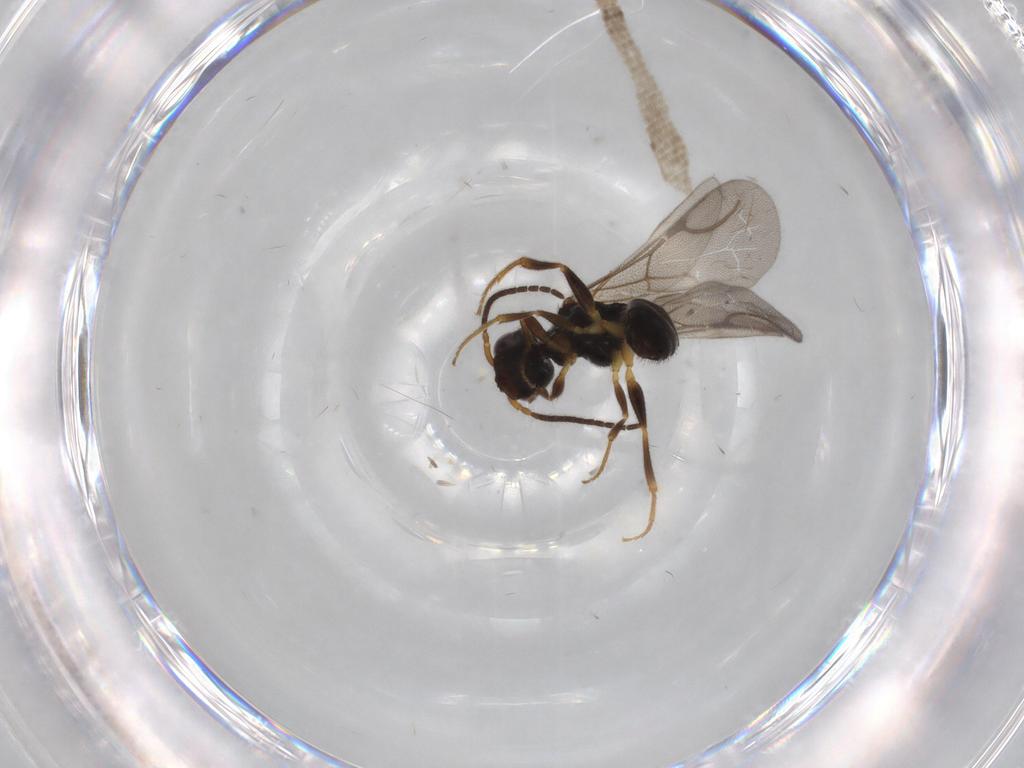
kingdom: Animalia
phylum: Arthropoda
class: Insecta
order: Hymenoptera
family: Bethylidae
